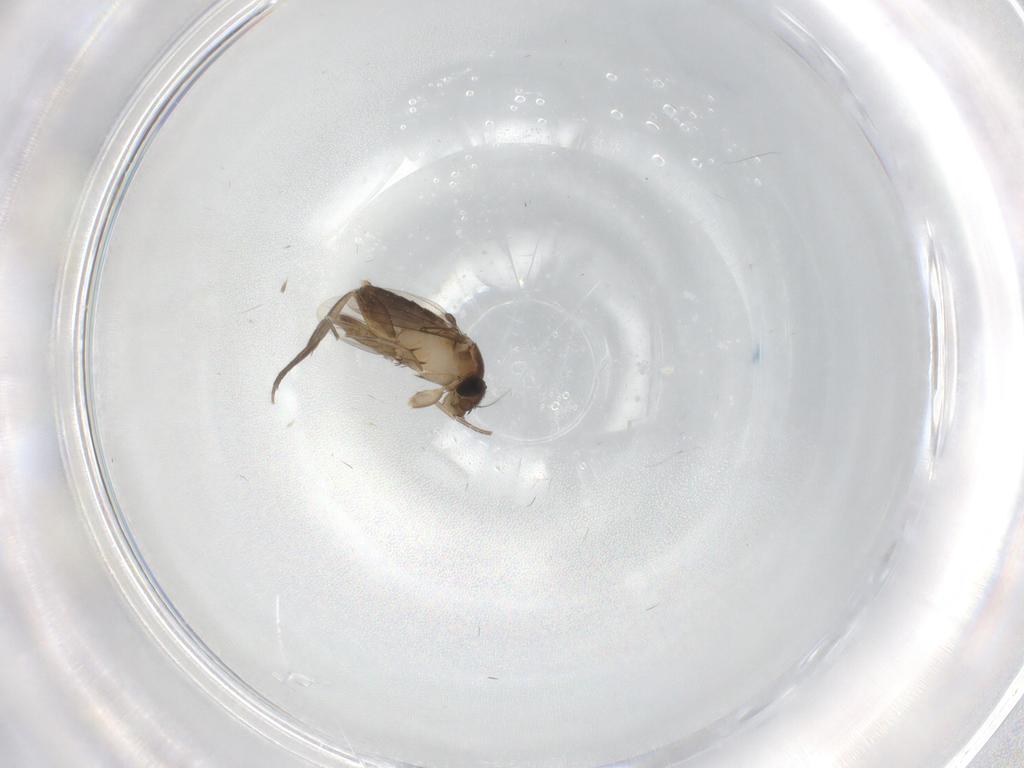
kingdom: Animalia
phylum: Arthropoda
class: Insecta
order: Diptera
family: Phoridae
